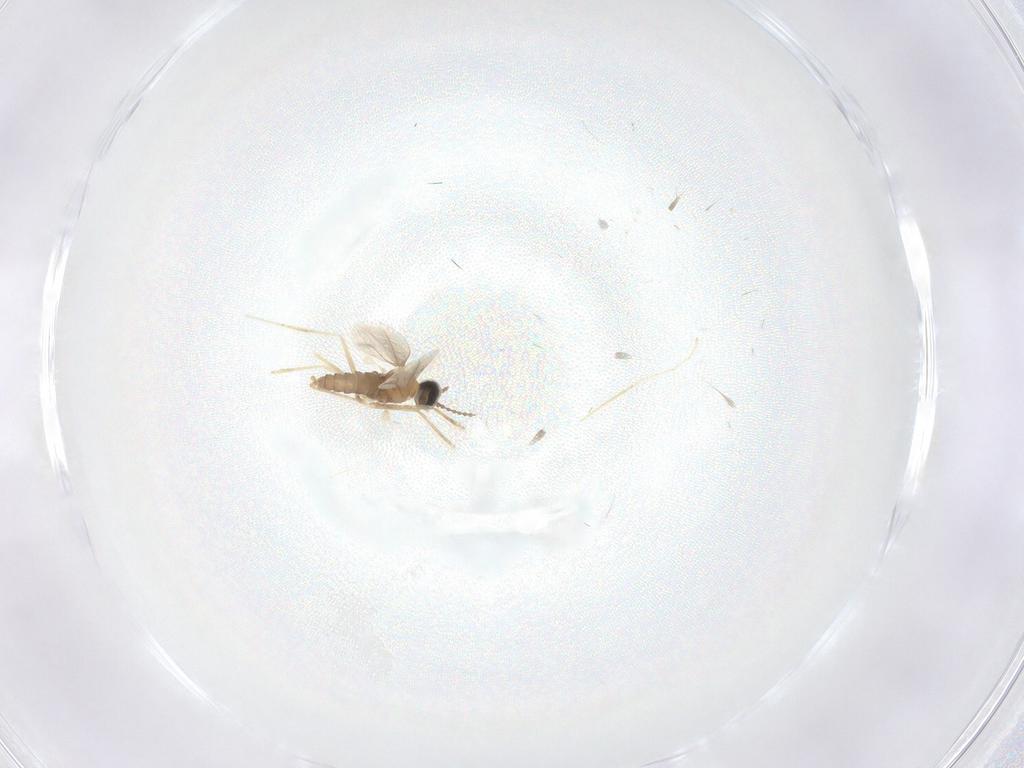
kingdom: Animalia
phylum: Arthropoda
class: Insecta
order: Diptera
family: Cecidomyiidae
